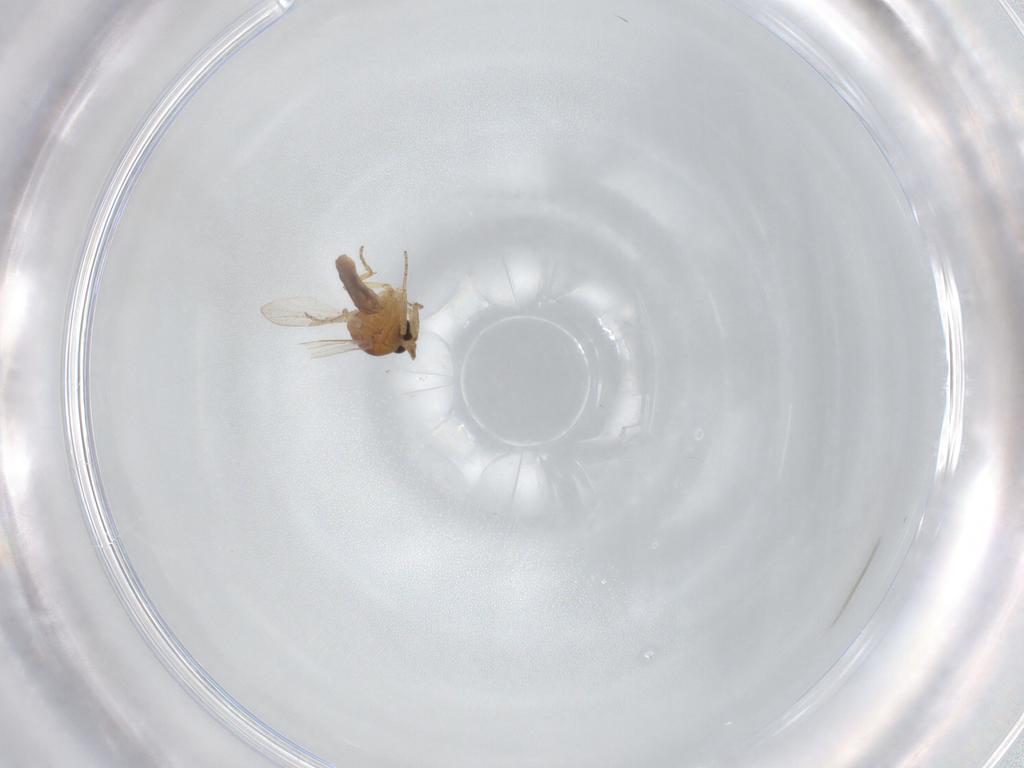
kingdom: Animalia
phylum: Arthropoda
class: Insecta
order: Diptera
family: Ceratopogonidae
